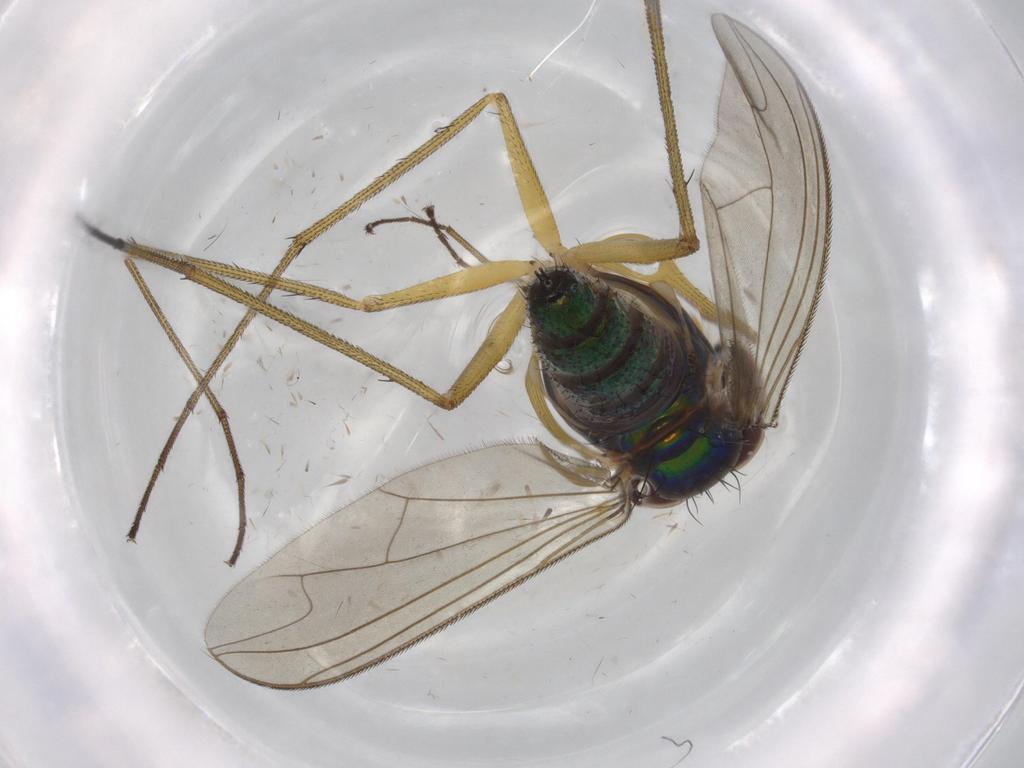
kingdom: Animalia
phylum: Arthropoda
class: Insecta
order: Diptera
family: Dolichopodidae
